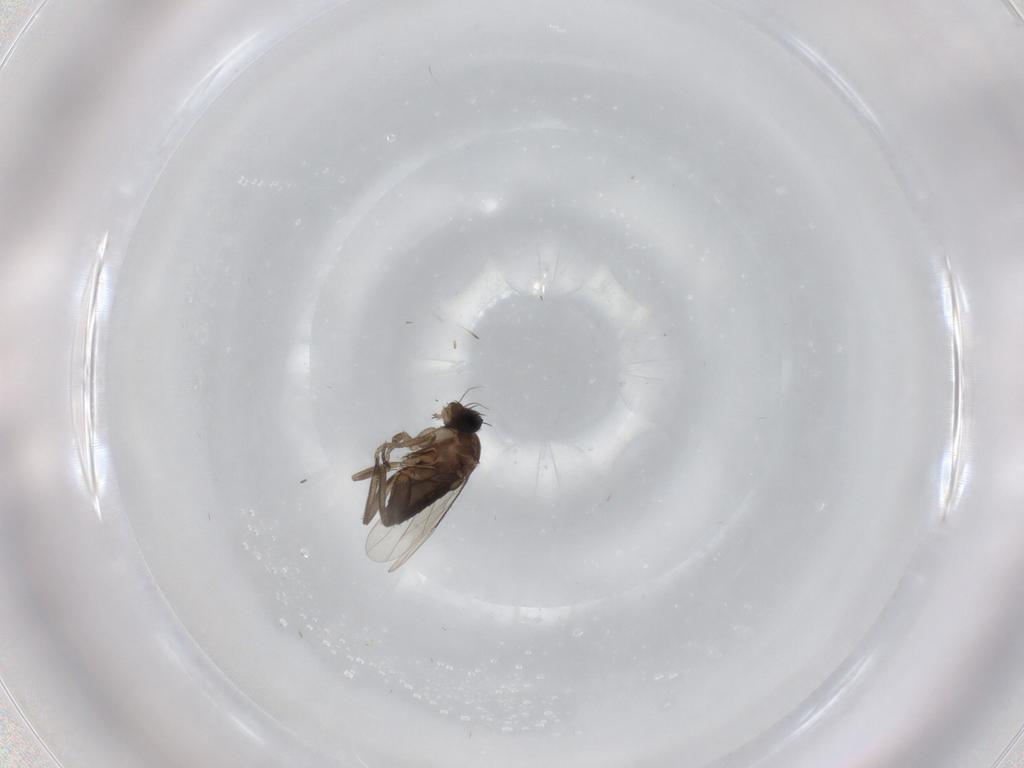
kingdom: Animalia
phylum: Arthropoda
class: Insecta
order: Diptera
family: Phoridae
